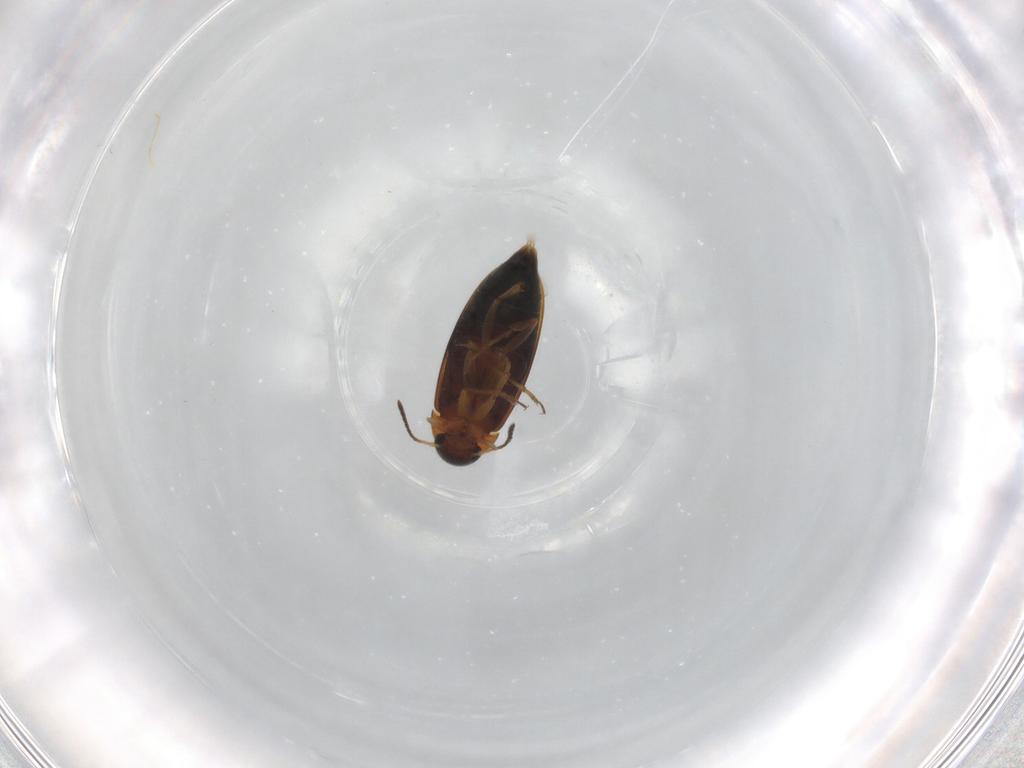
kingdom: Animalia
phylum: Arthropoda
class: Insecta
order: Coleoptera
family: Scraptiidae
